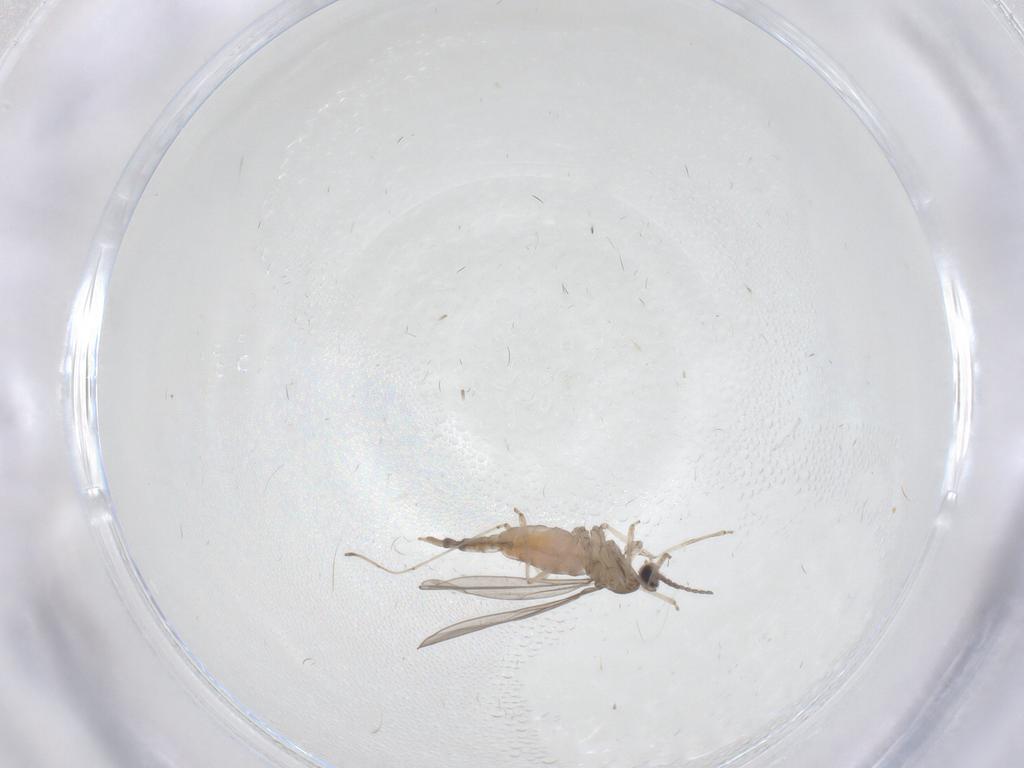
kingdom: Animalia
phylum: Arthropoda
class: Insecta
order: Diptera
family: Cecidomyiidae
